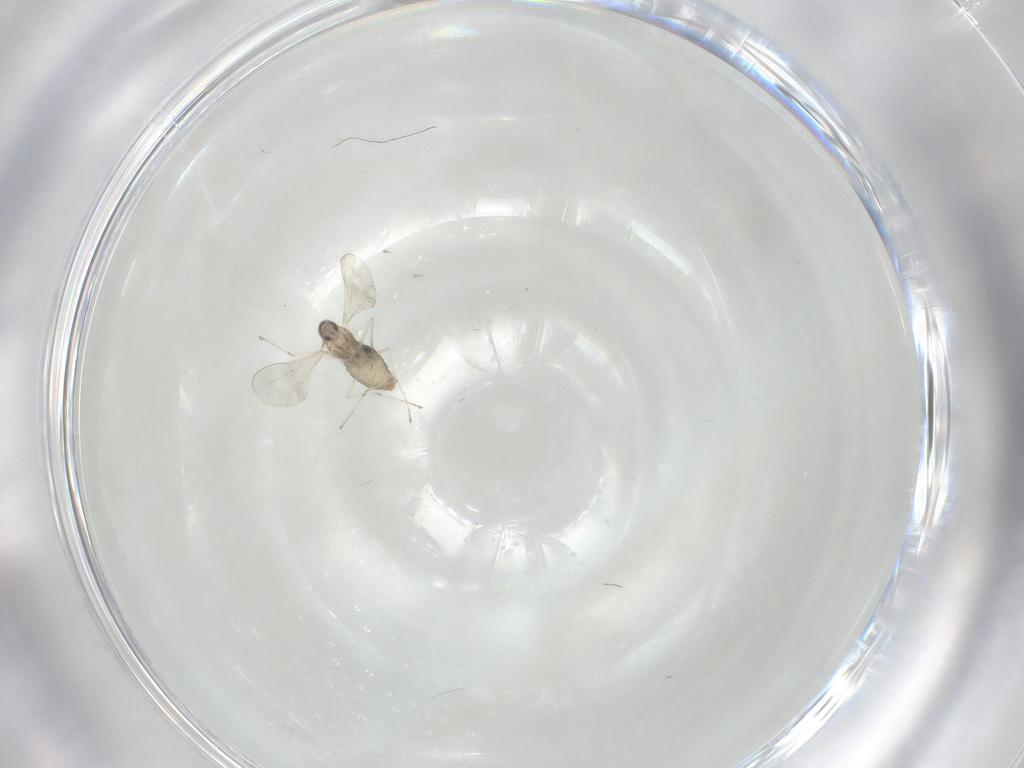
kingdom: Animalia
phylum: Arthropoda
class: Insecta
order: Diptera
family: Cecidomyiidae
